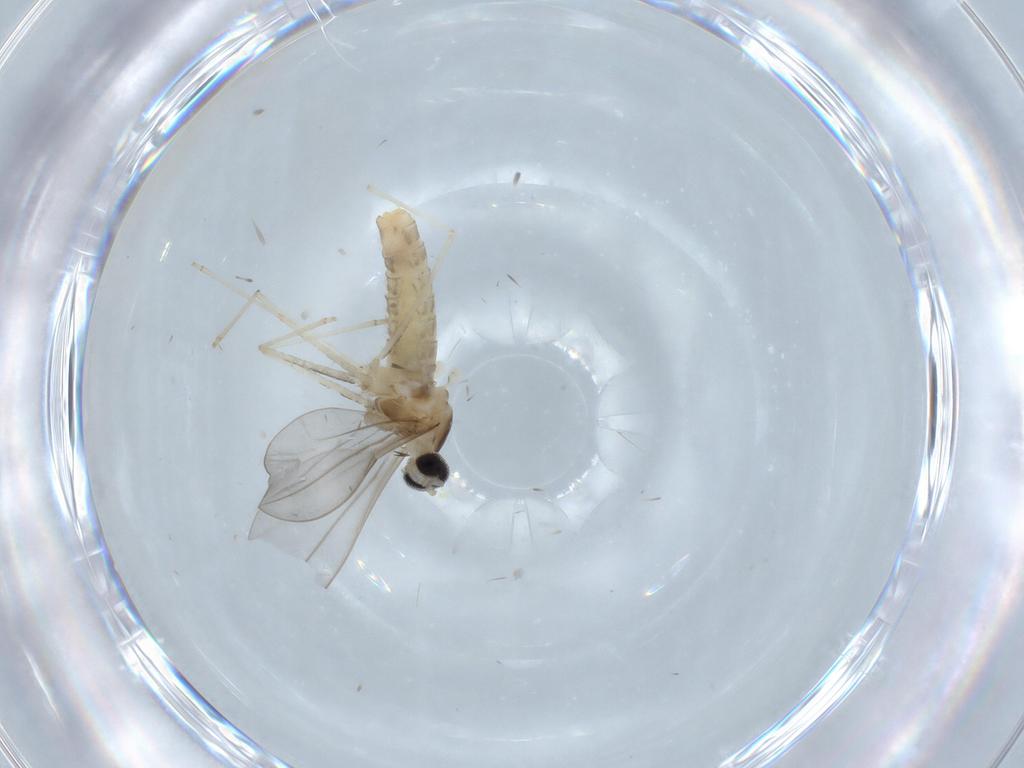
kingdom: Animalia
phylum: Arthropoda
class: Insecta
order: Diptera
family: Cecidomyiidae
